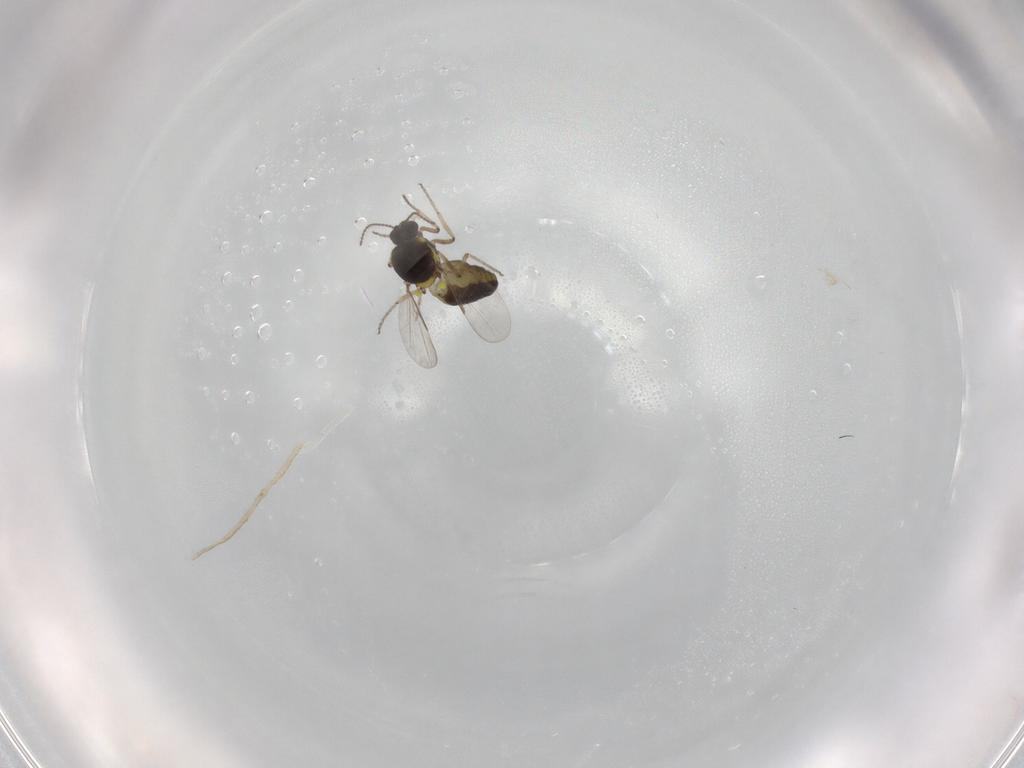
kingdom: Animalia
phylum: Arthropoda
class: Insecta
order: Diptera
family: Ceratopogonidae
